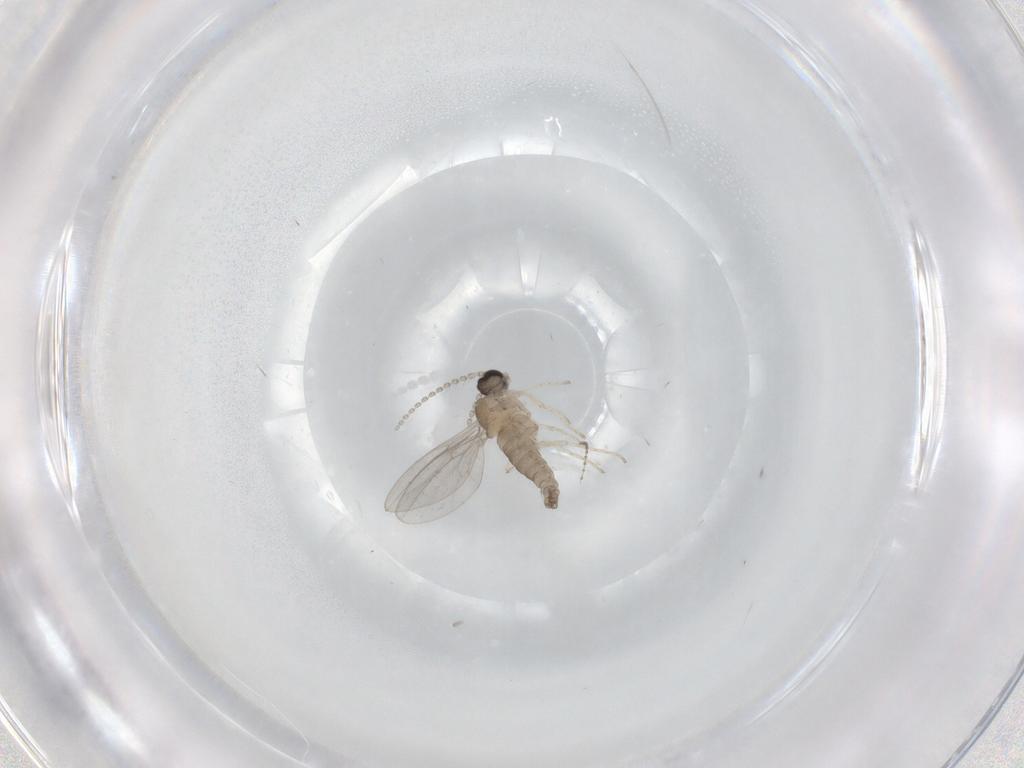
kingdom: Animalia
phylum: Arthropoda
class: Insecta
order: Diptera
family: Cecidomyiidae
